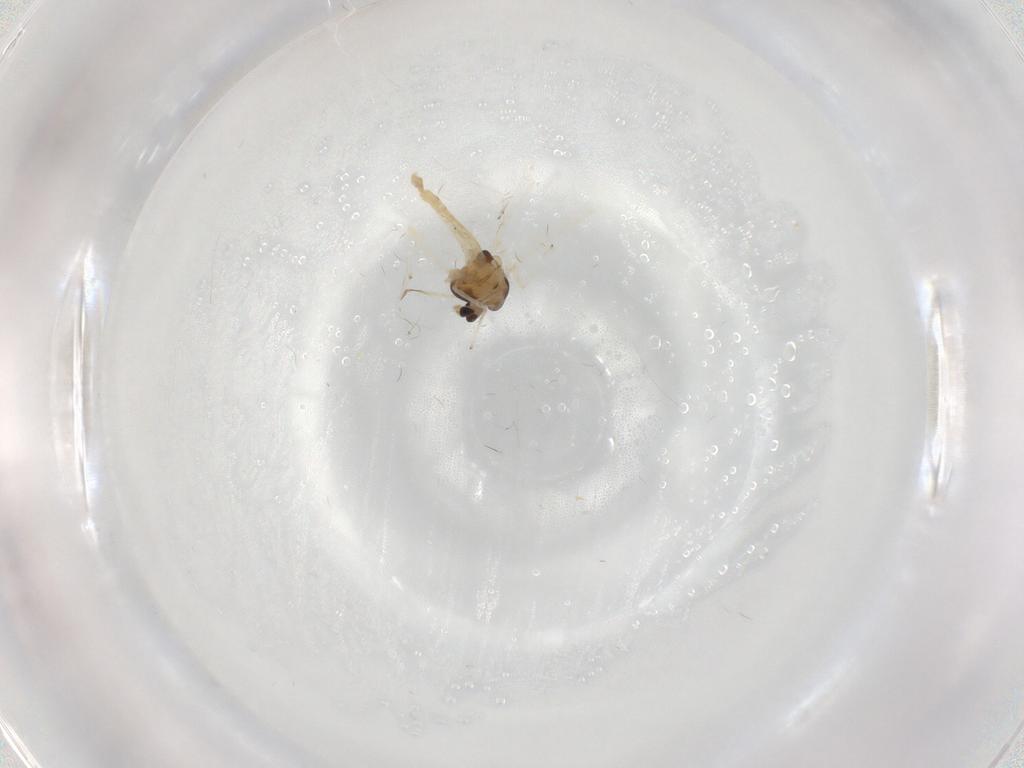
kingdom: Animalia
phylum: Arthropoda
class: Insecta
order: Diptera
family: Chironomidae
